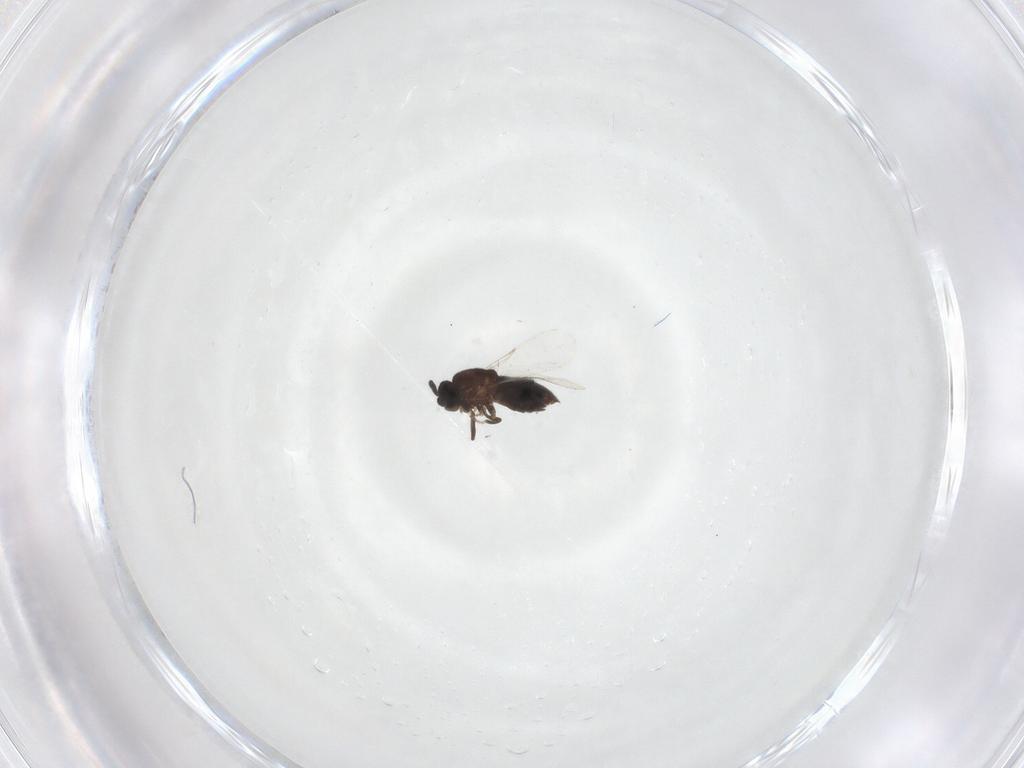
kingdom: Animalia
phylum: Arthropoda
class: Insecta
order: Diptera
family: Scatopsidae
